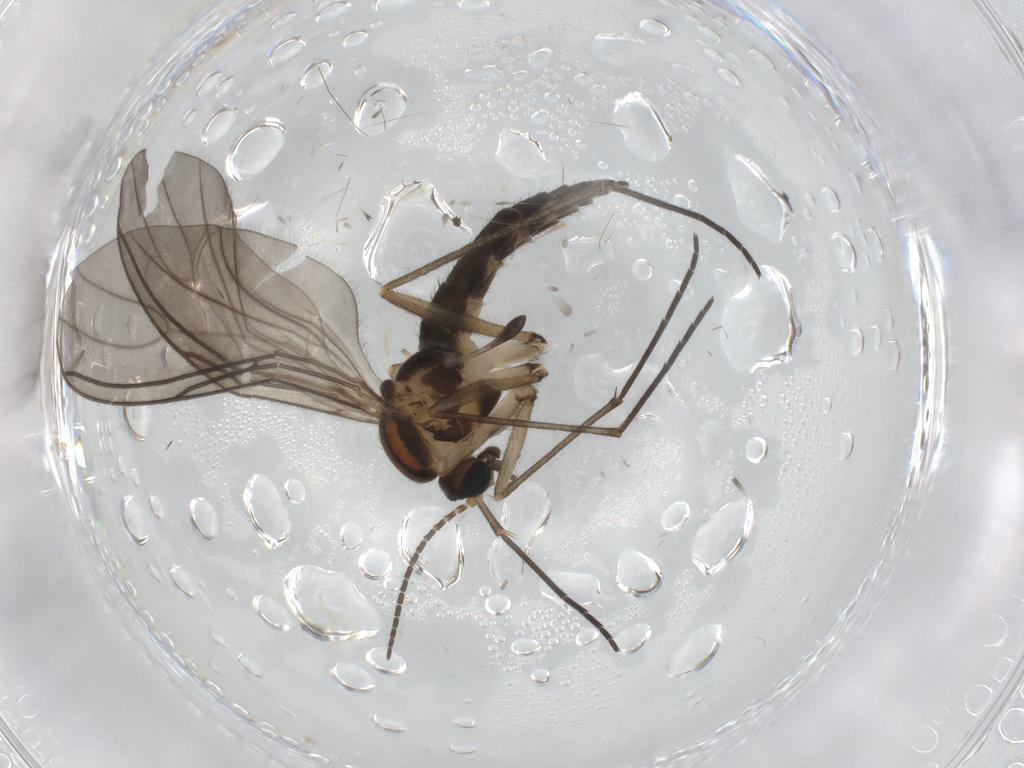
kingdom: Animalia
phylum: Arthropoda
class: Insecta
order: Diptera
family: Sciaridae
